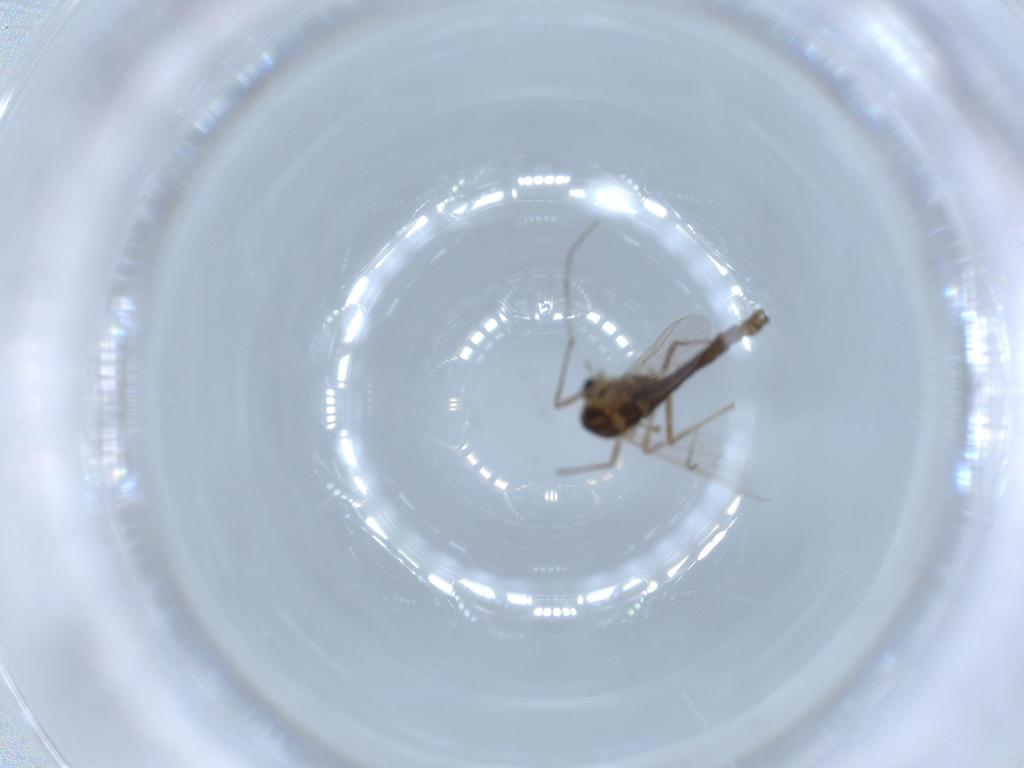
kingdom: Animalia
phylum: Arthropoda
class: Insecta
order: Diptera
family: Chironomidae
